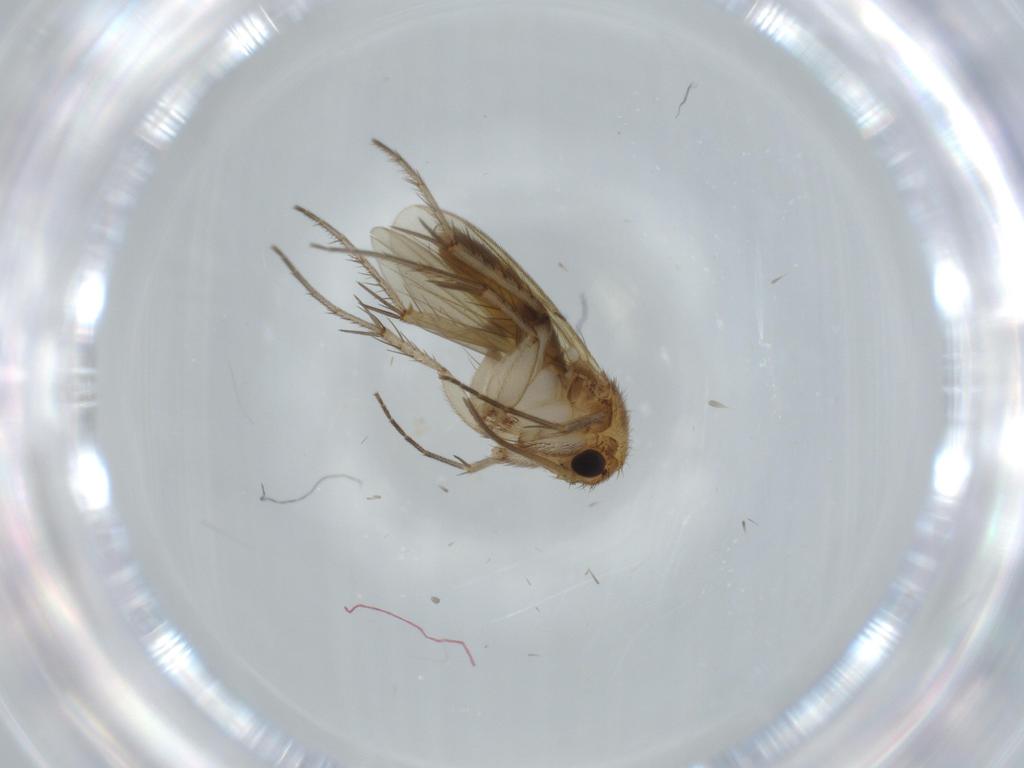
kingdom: Animalia
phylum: Arthropoda
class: Insecta
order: Diptera
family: Cecidomyiidae
